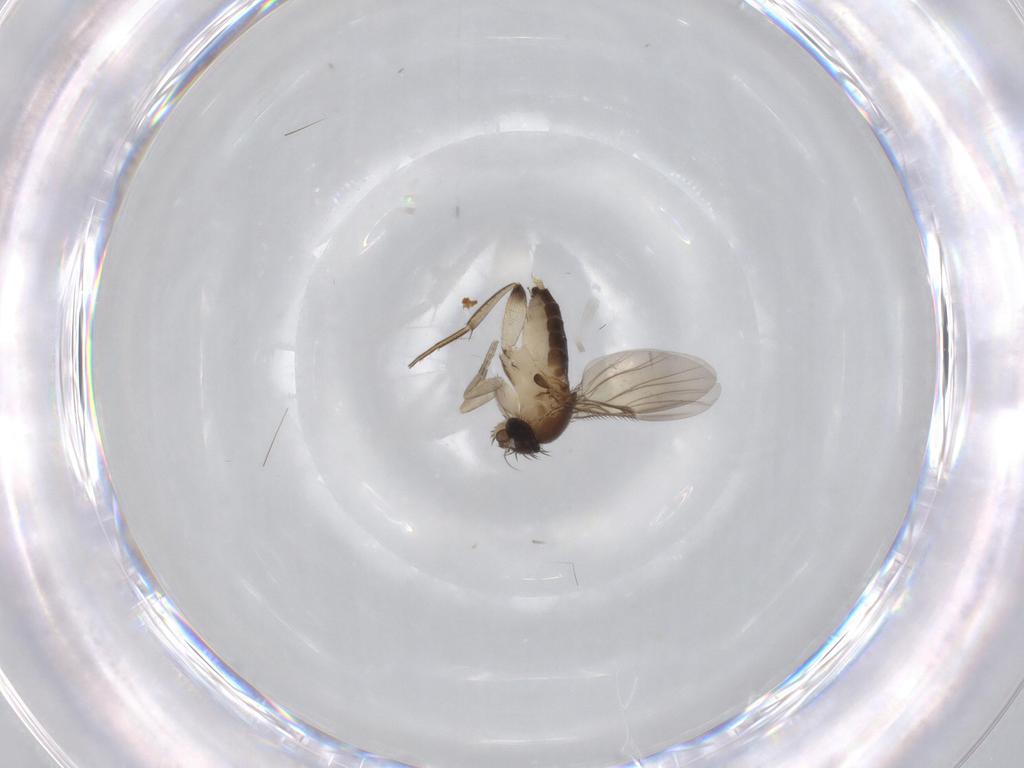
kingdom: Animalia
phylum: Arthropoda
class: Insecta
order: Diptera
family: Phoridae
